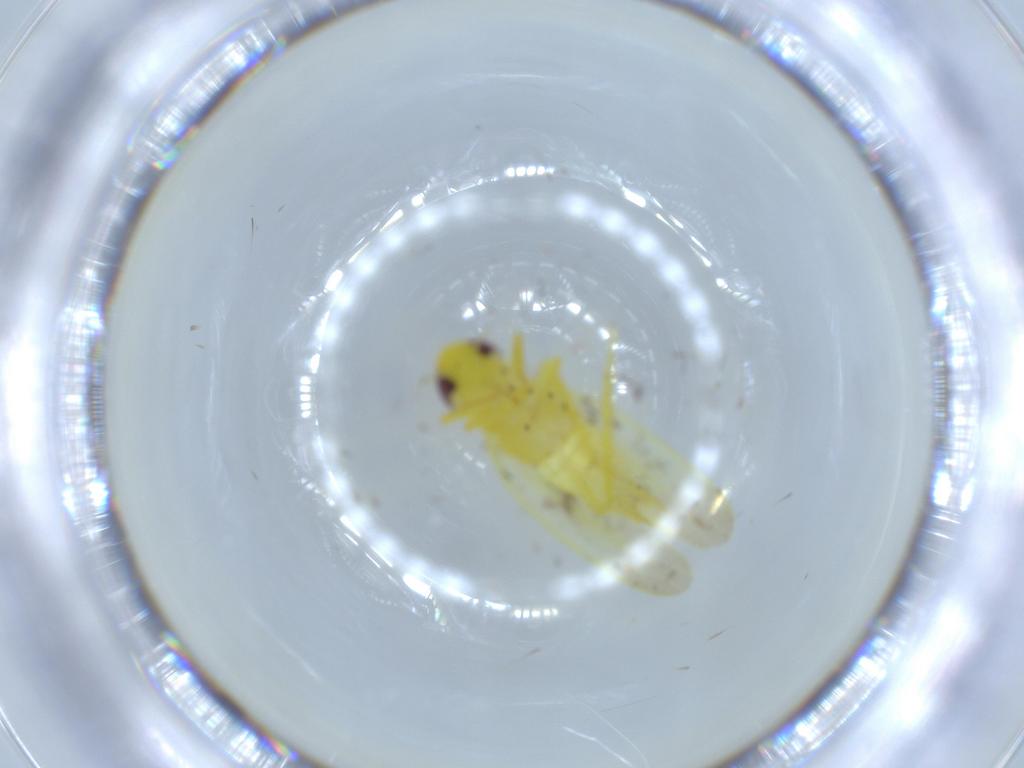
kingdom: Animalia
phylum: Arthropoda
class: Insecta
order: Hemiptera
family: Cicadellidae
